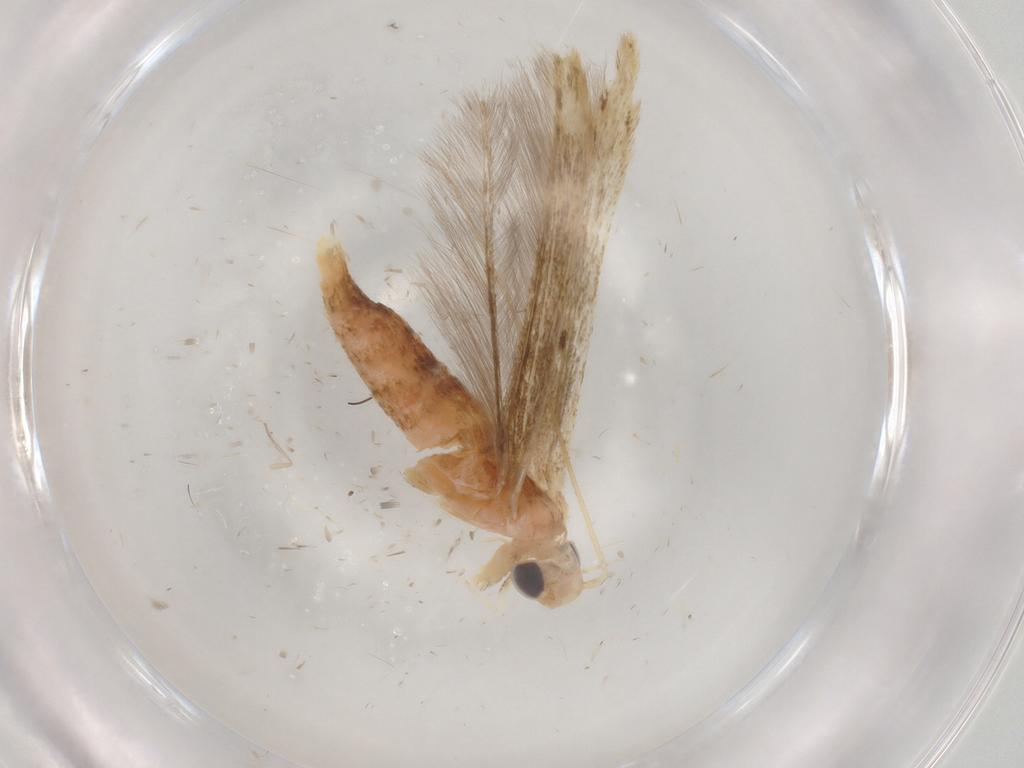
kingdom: Animalia
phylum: Arthropoda
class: Insecta
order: Lepidoptera
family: Batrachedridae
